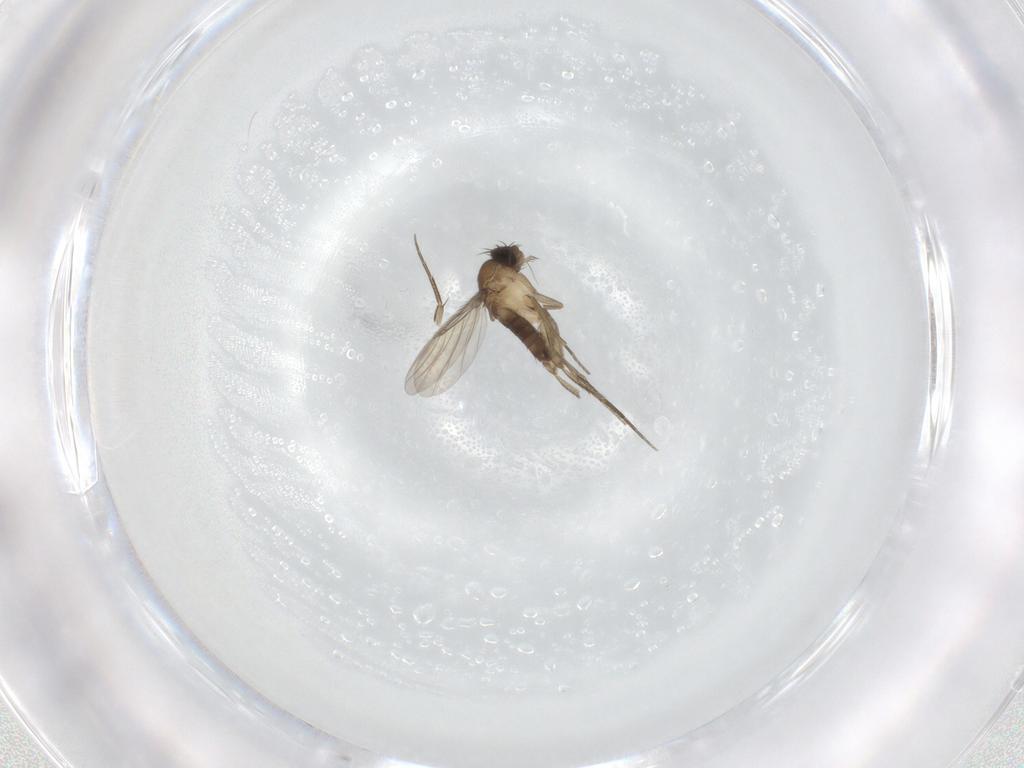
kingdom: Animalia
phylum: Arthropoda
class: Insecta
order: Diptera
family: Phoridae
